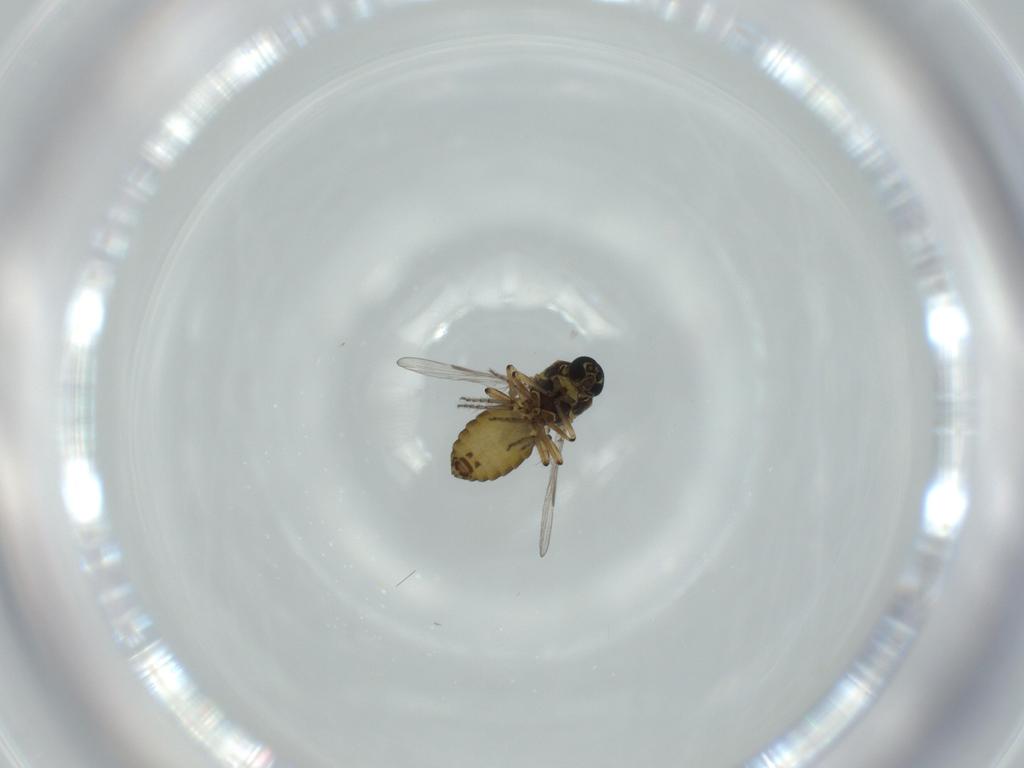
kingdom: Animalia
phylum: Arthropoda
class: Insecta
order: Diptera
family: Ceratopogonidae
